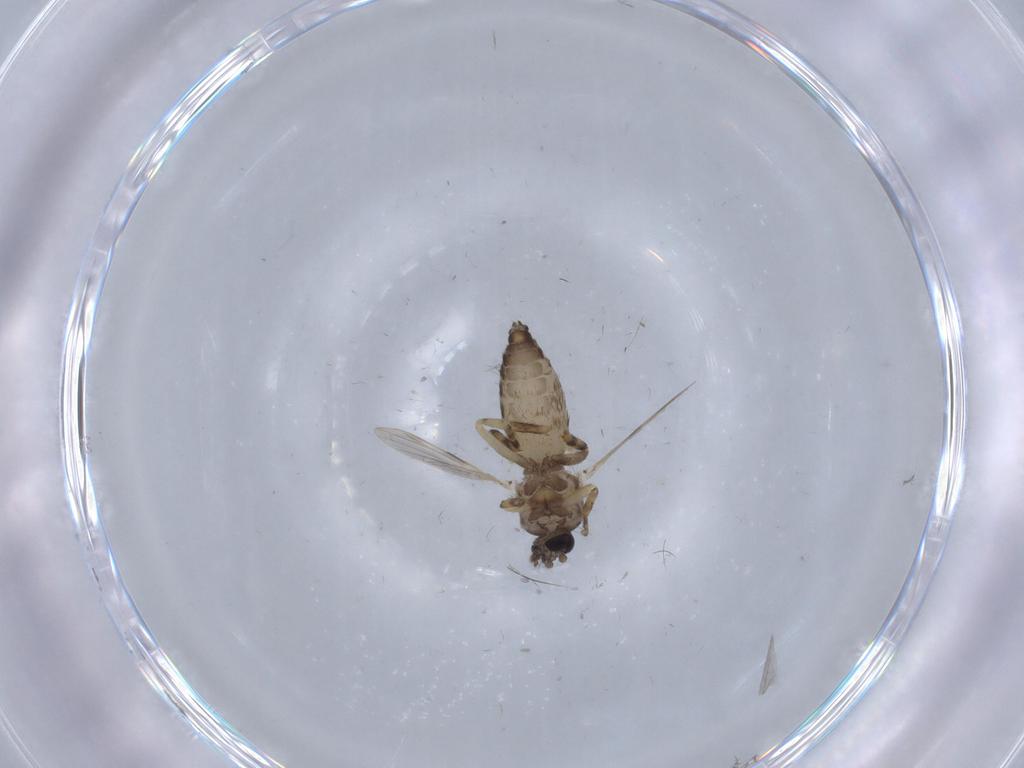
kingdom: Animalia
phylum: Arthropoda
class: Insecta
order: Diptera
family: Ceratopogonidae
